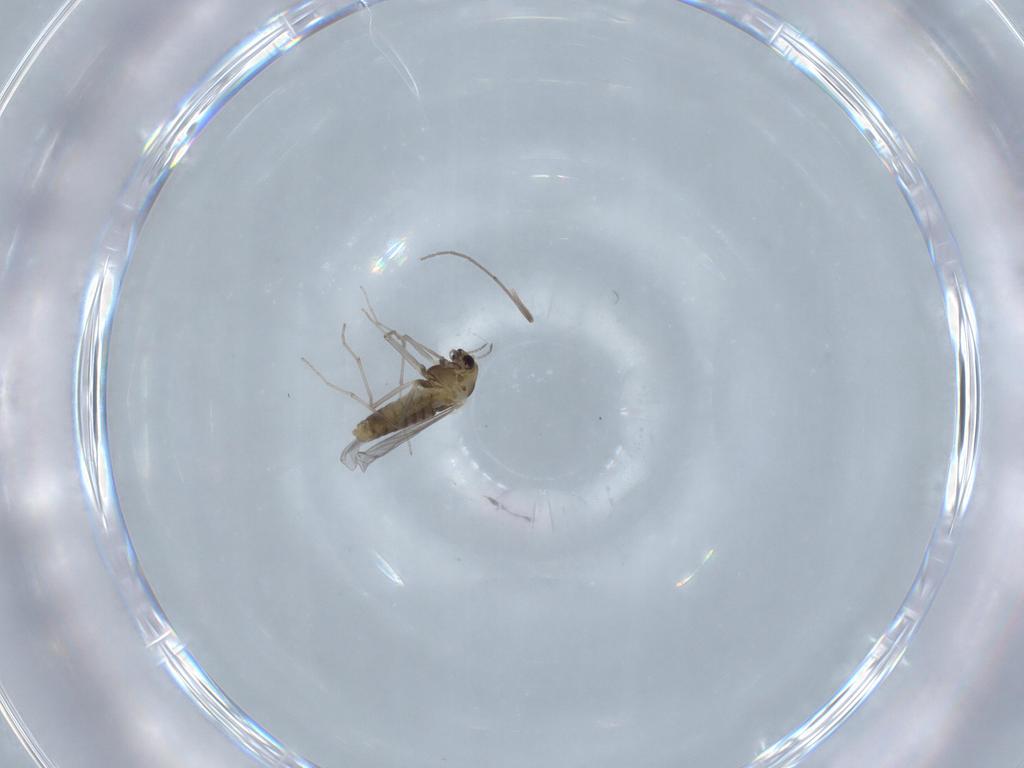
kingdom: Animalia
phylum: Arthropoda
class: Insecta
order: Diptera
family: Chironomidae
